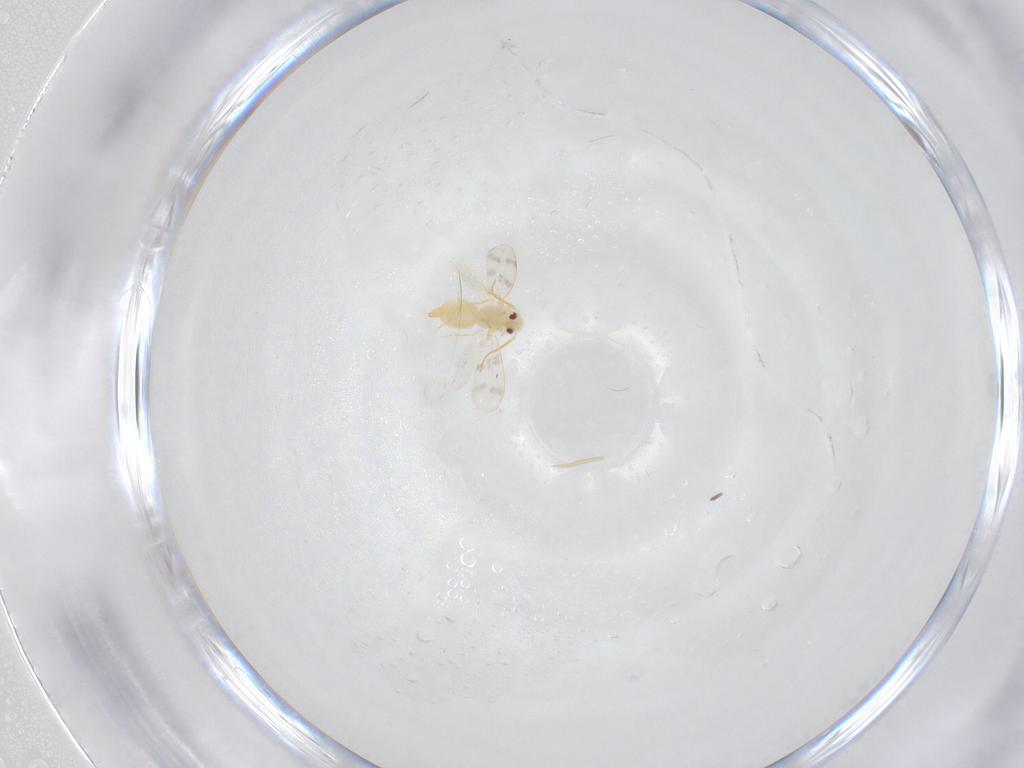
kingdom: Animalia
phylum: Arthropoda
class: Insecta
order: Hemiptera
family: Aleyrodidae
